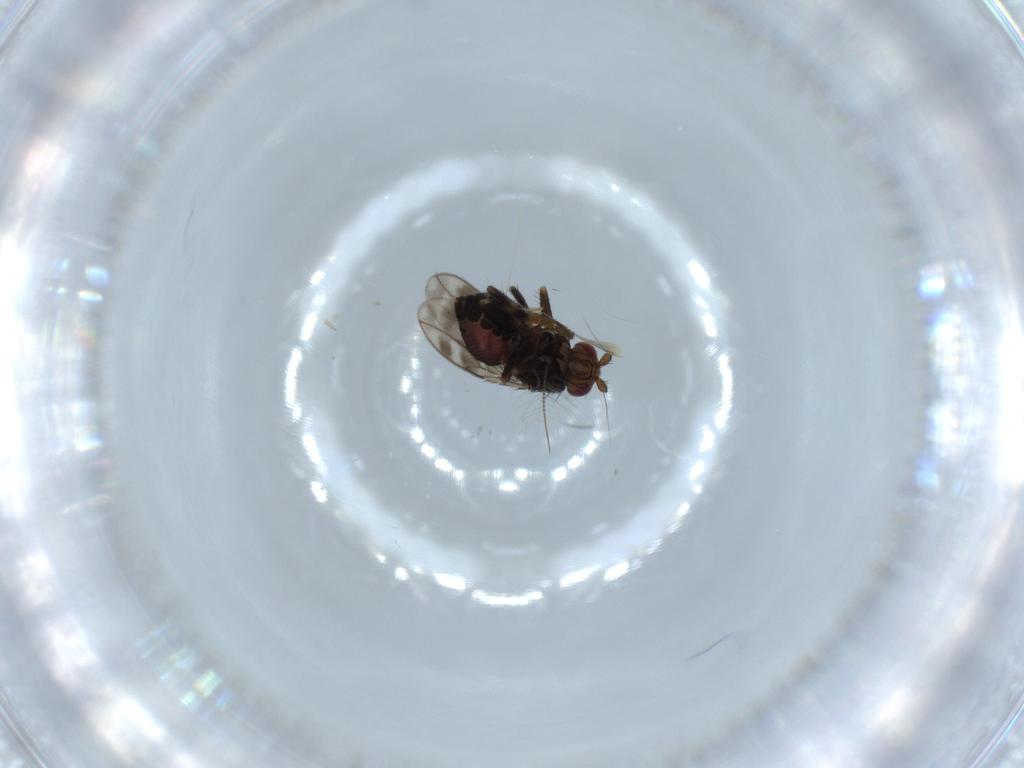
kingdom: Animalia
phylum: Arthropoda
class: Insecta
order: Diptera
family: Sphaeroceridae
